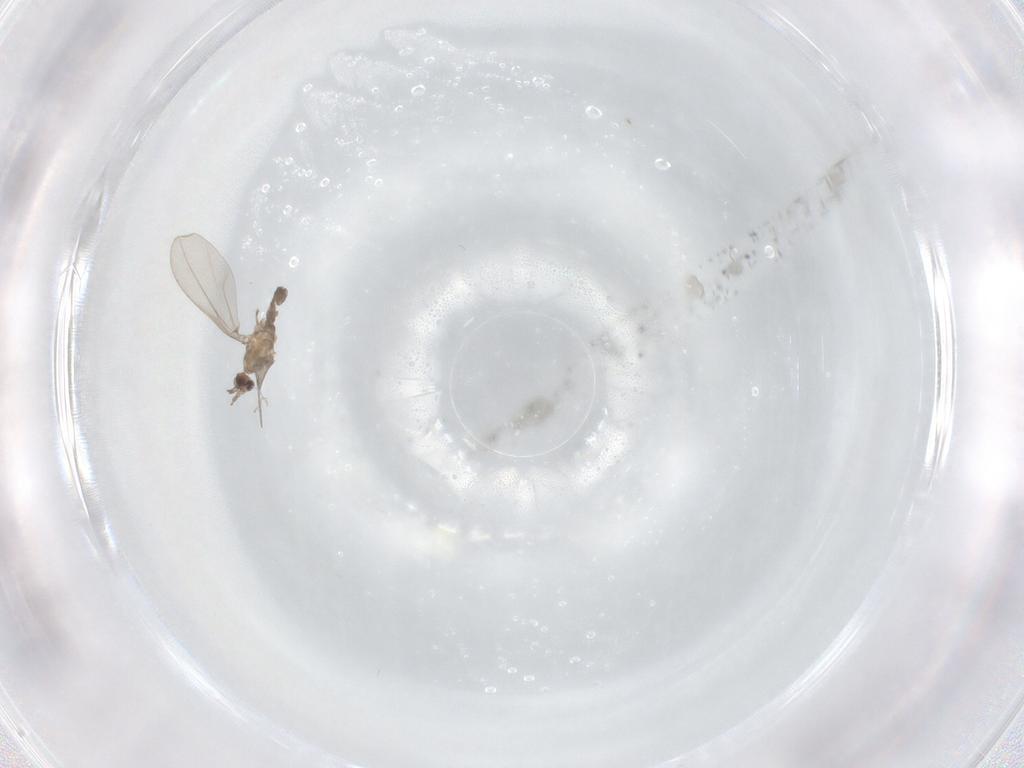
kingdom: Animalia
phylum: Arthropoda
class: Insecta
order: Diptera
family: Cecidomyiidae
